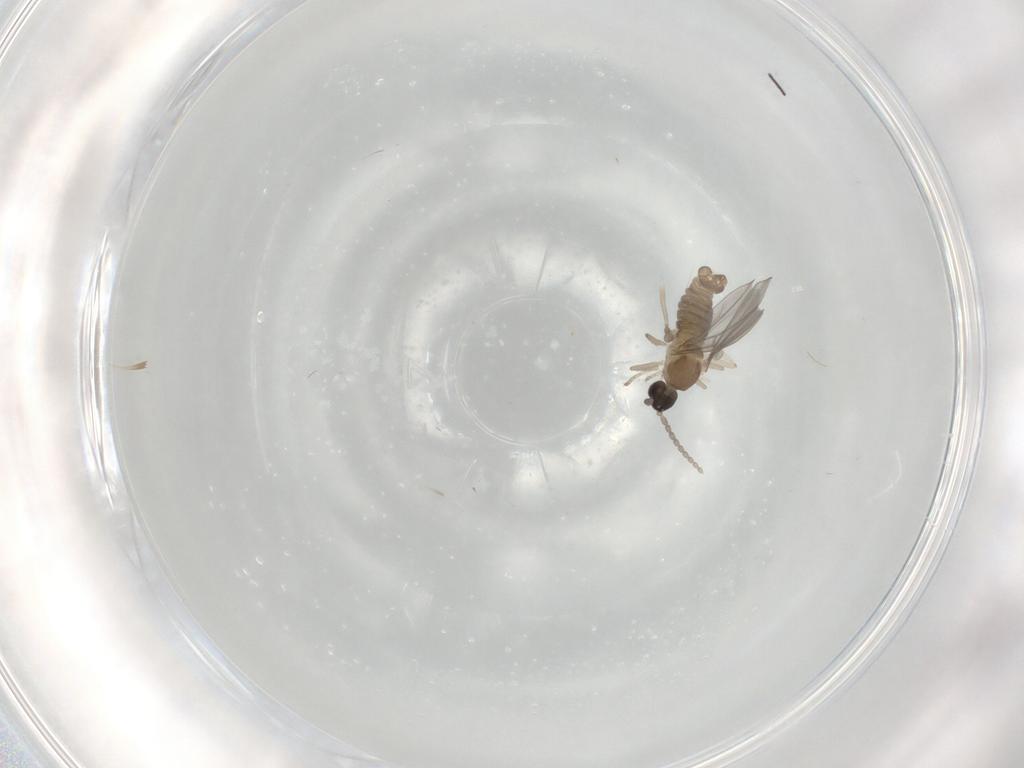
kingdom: Animalia
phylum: Arthropoda
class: Insecta
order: Diptera
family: Cecidomyiidae
